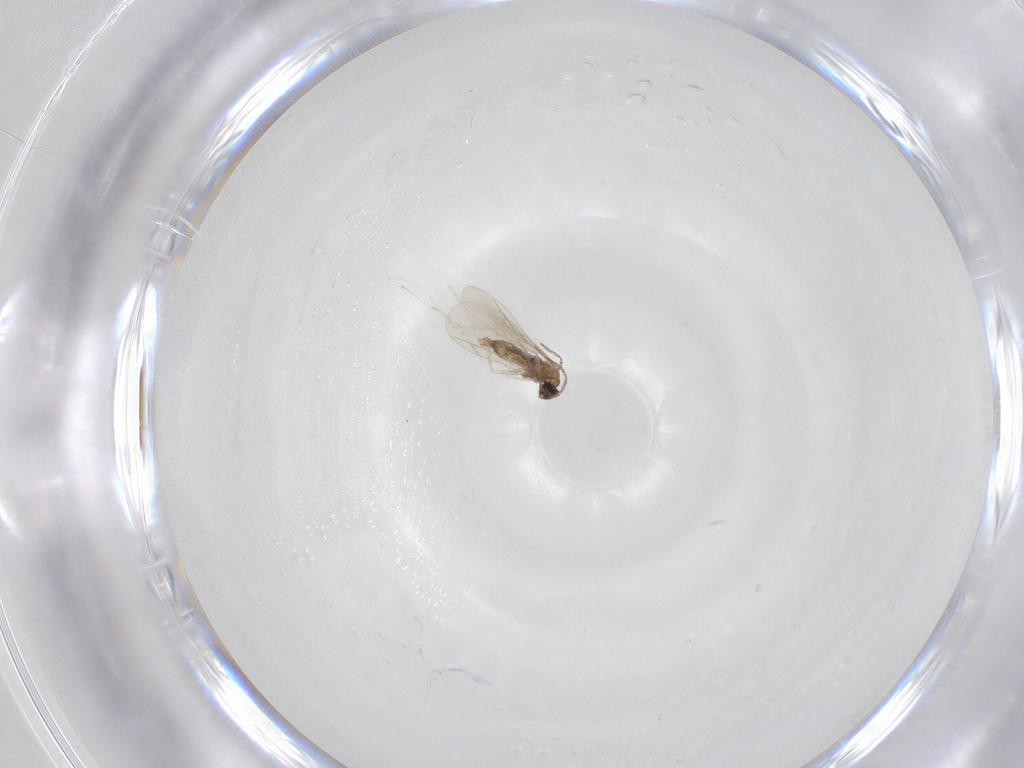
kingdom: Animalia
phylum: Arthropoda
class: Insecta
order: Diptera
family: Cecidomyiidae
